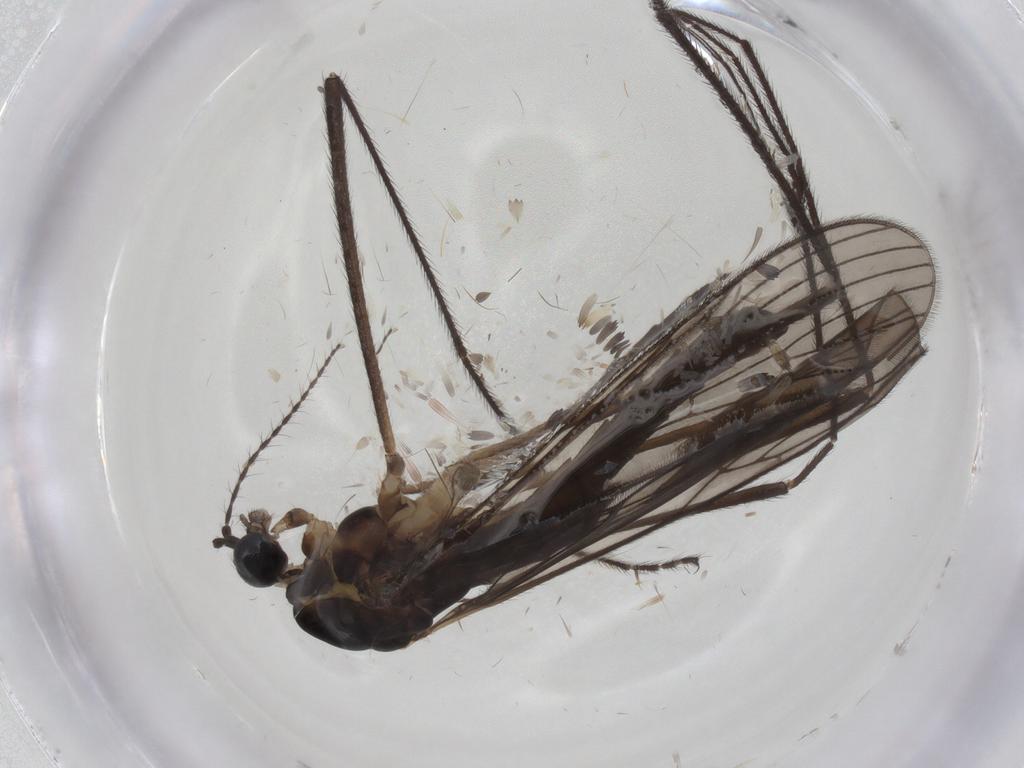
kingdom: Animalia
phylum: Arthropoda
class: Insecta
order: Diptera
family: Limoniidae
